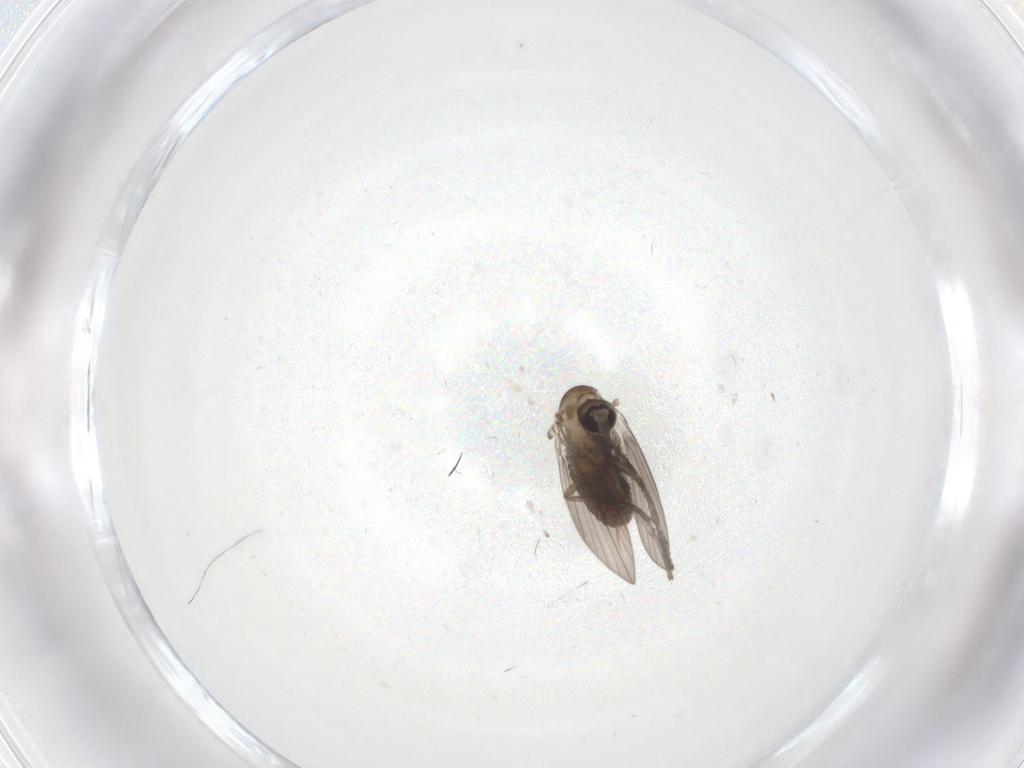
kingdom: Animalia
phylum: Arthropoda
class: Insecta
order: Diptera
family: Psychodidae
